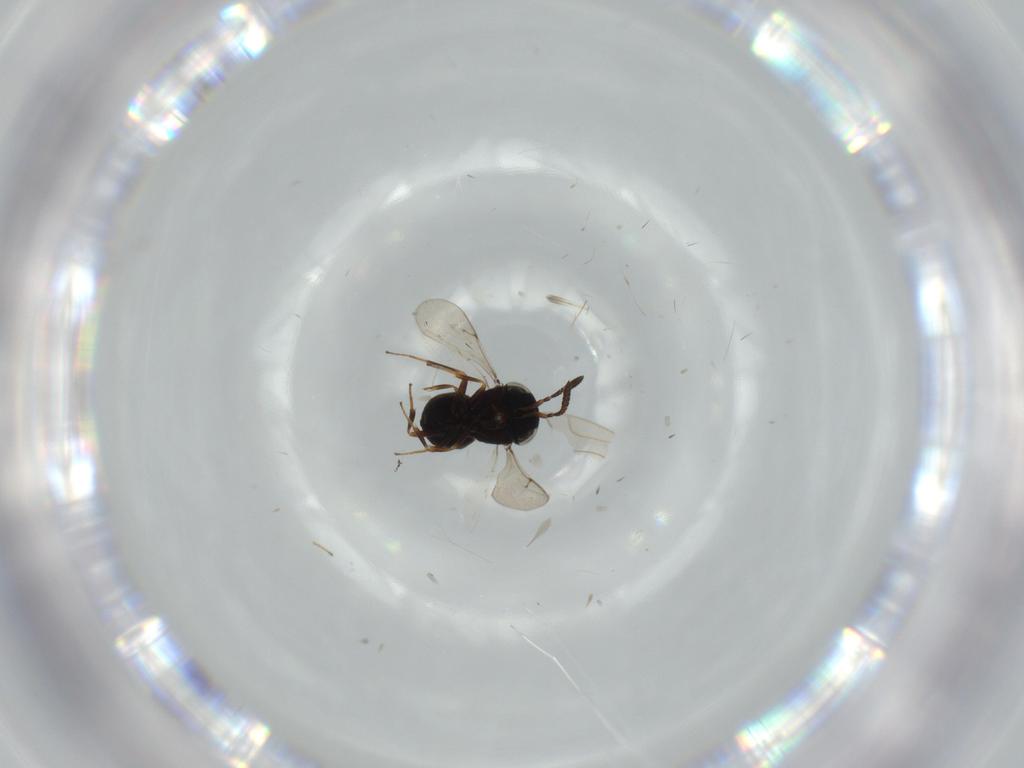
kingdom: Animalia
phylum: Arthropoda
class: Insecta
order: Hymenoptera
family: Scelionidae
